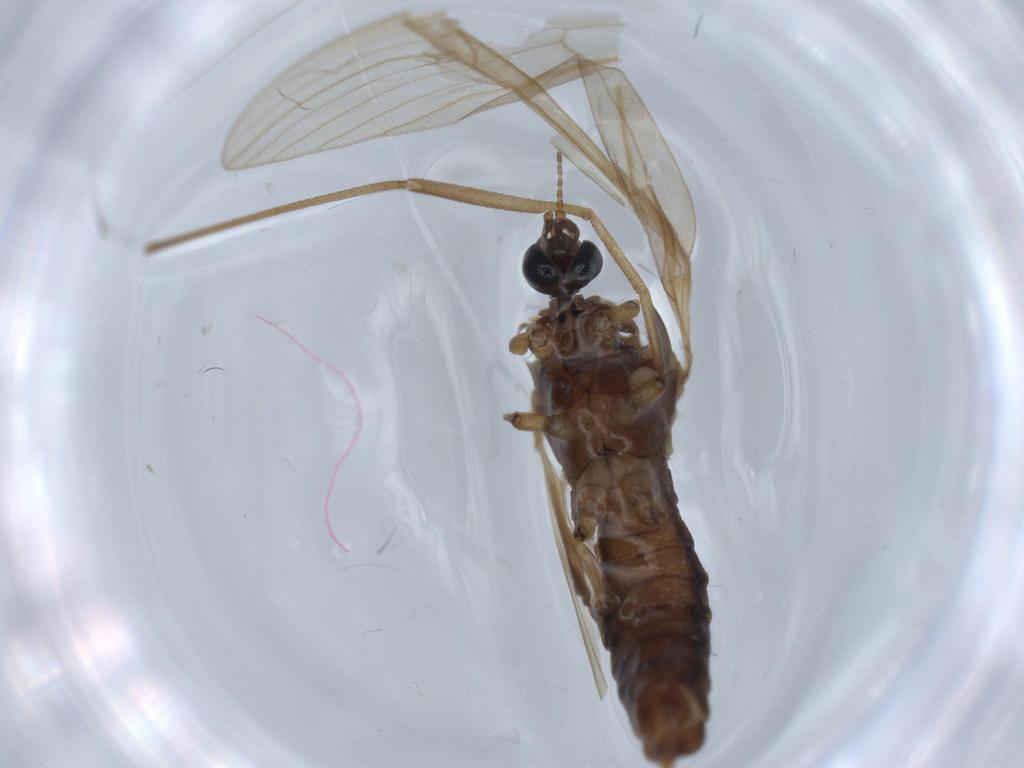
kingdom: Animalia
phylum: Arthropoda
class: Insecta
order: Diptera
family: Limoniidae
